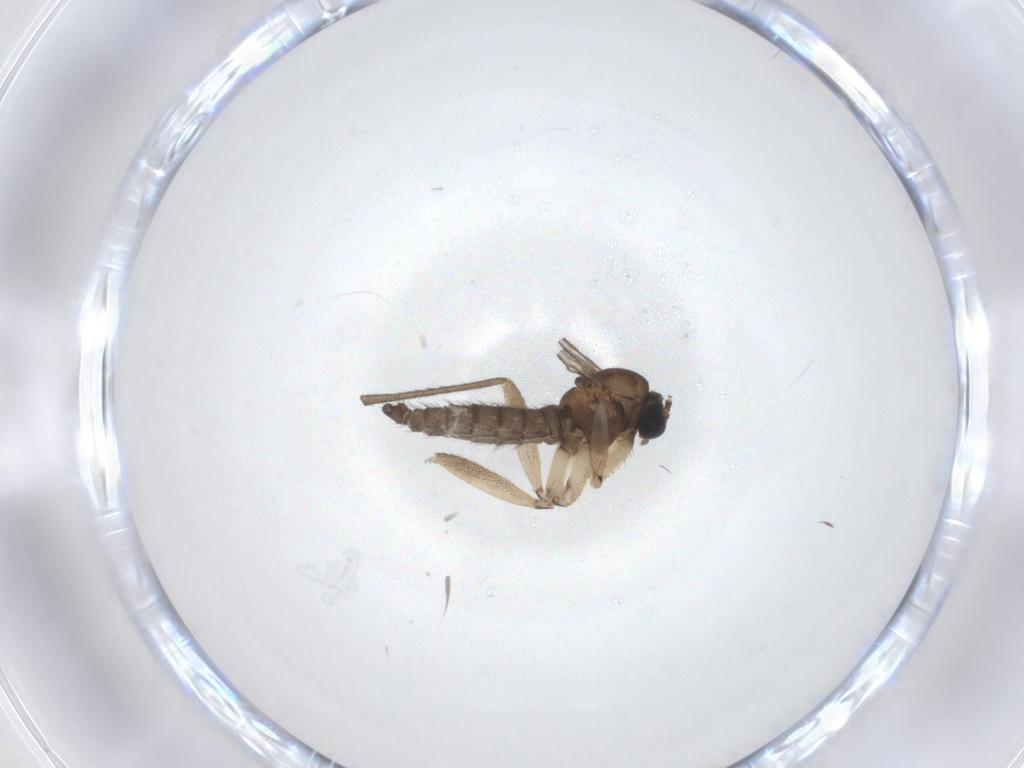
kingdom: Animalia
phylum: Arthropoda
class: Insecta
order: Diptera
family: Sciaridae
